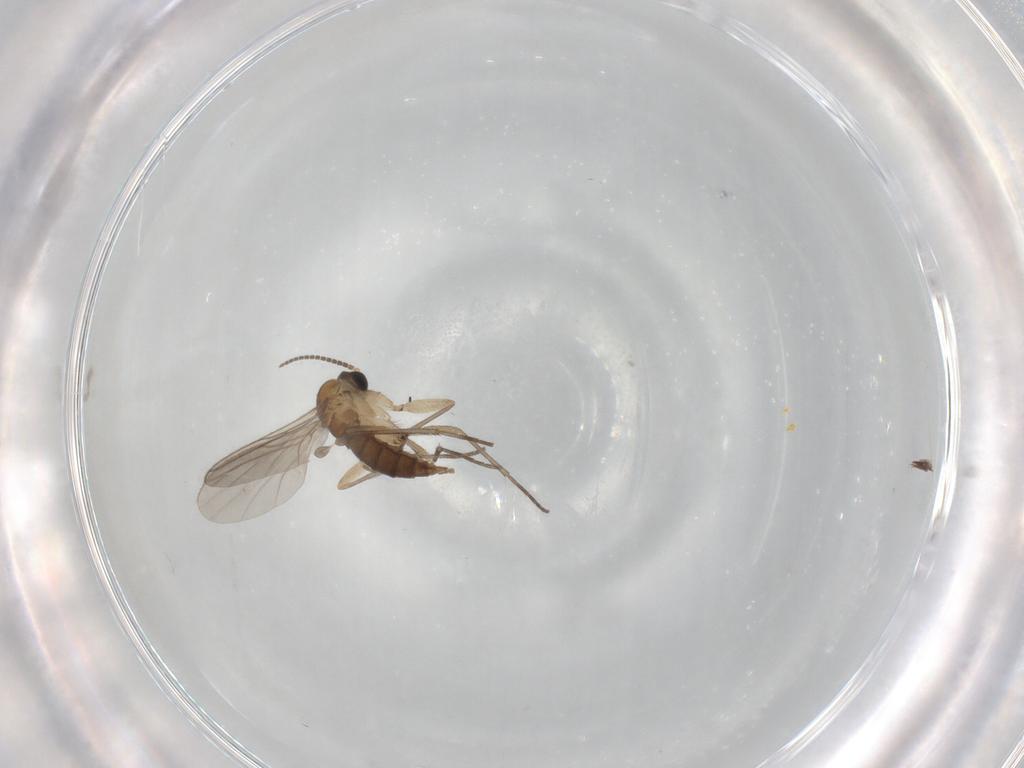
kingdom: Animalia
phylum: Arthropoda
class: Insecta
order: Diptera
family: Sciaridae
